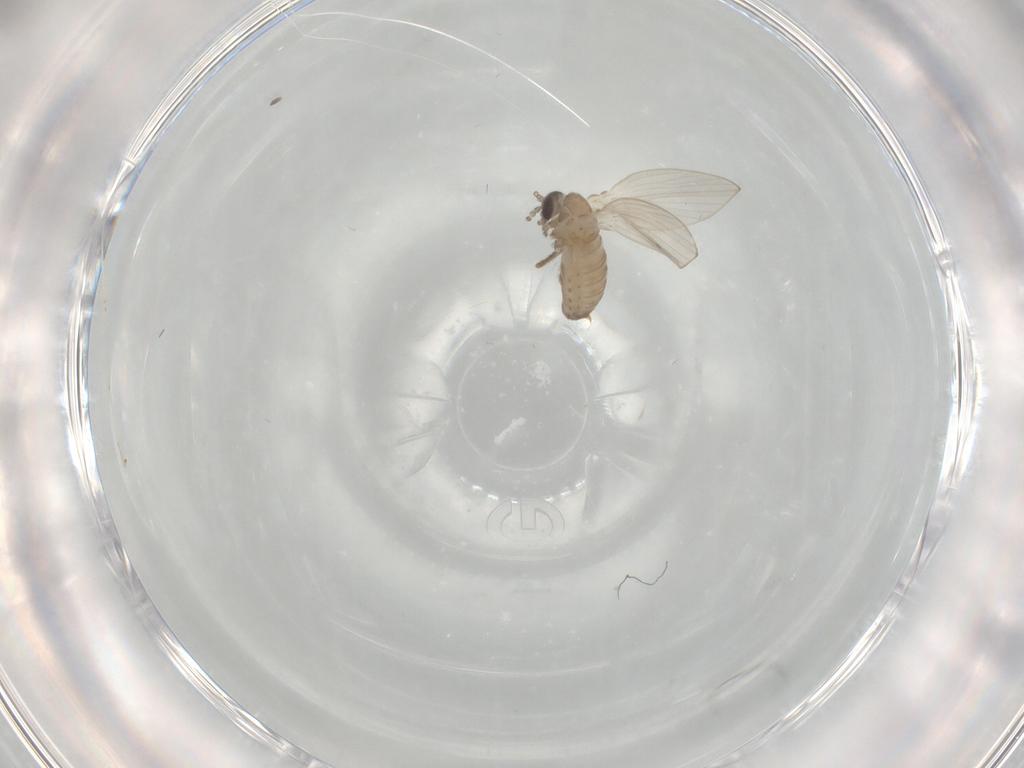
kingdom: Animalia
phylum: Arthropoda
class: Insecta
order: Diptera
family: Psychodidae
